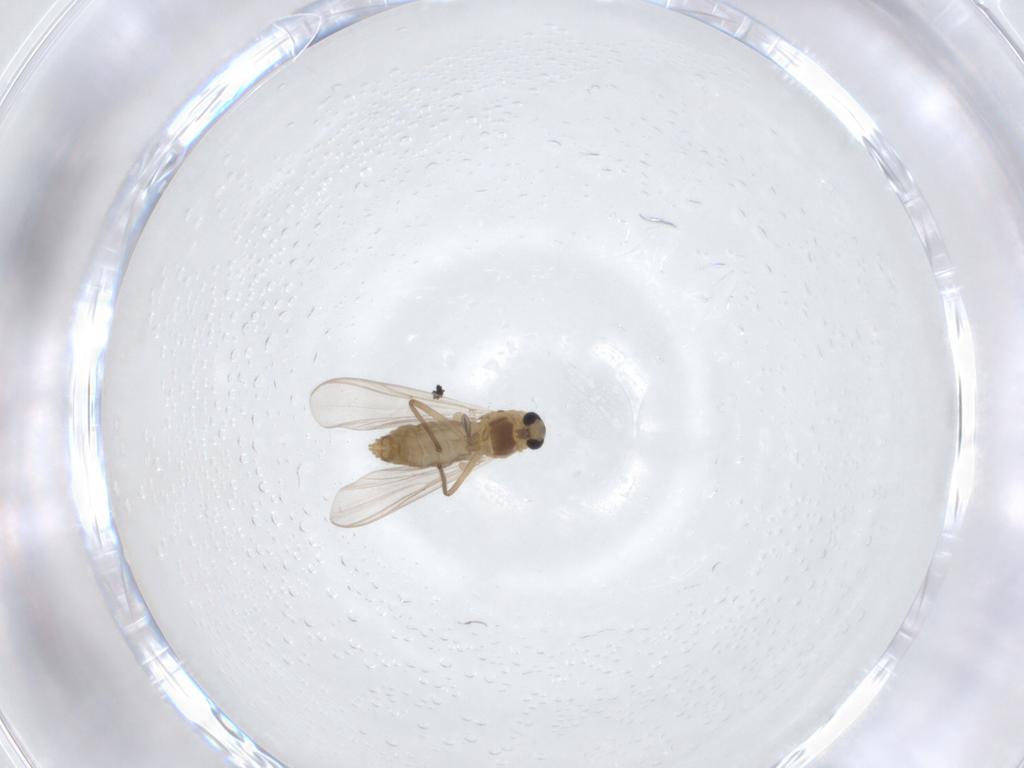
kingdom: Animalia
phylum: Arthropoda
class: Insecta
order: Diptera
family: Chironomidae
